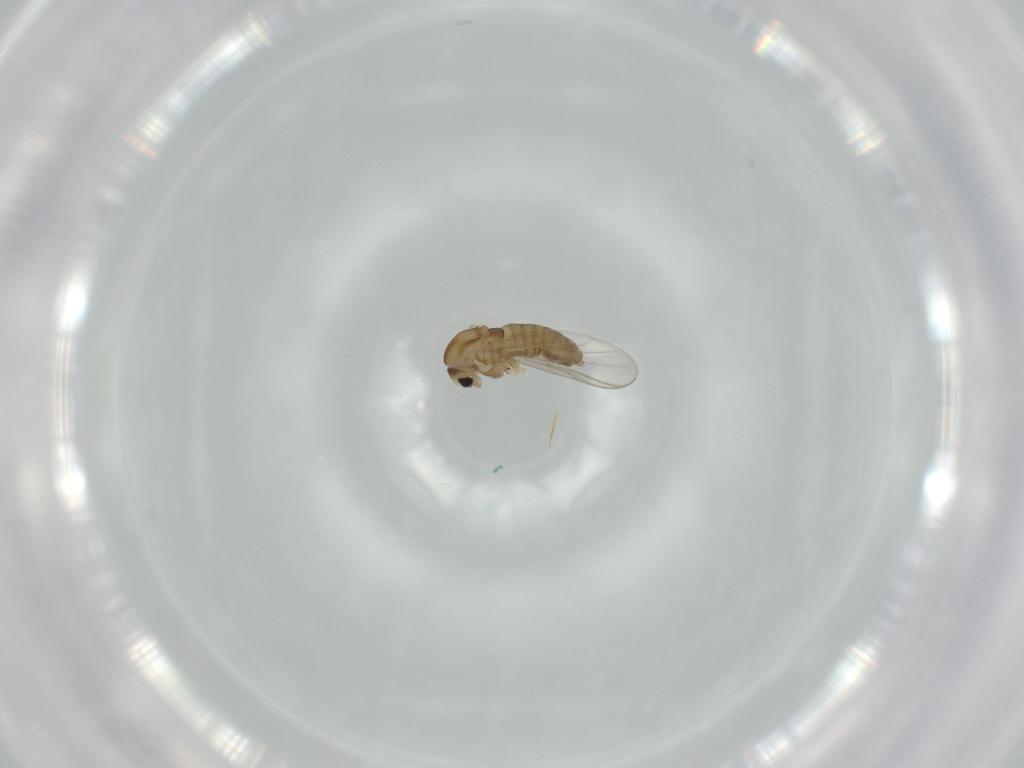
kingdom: Animalia
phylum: Arthropoda
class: Insecta
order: Diptera
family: Chironomidae
